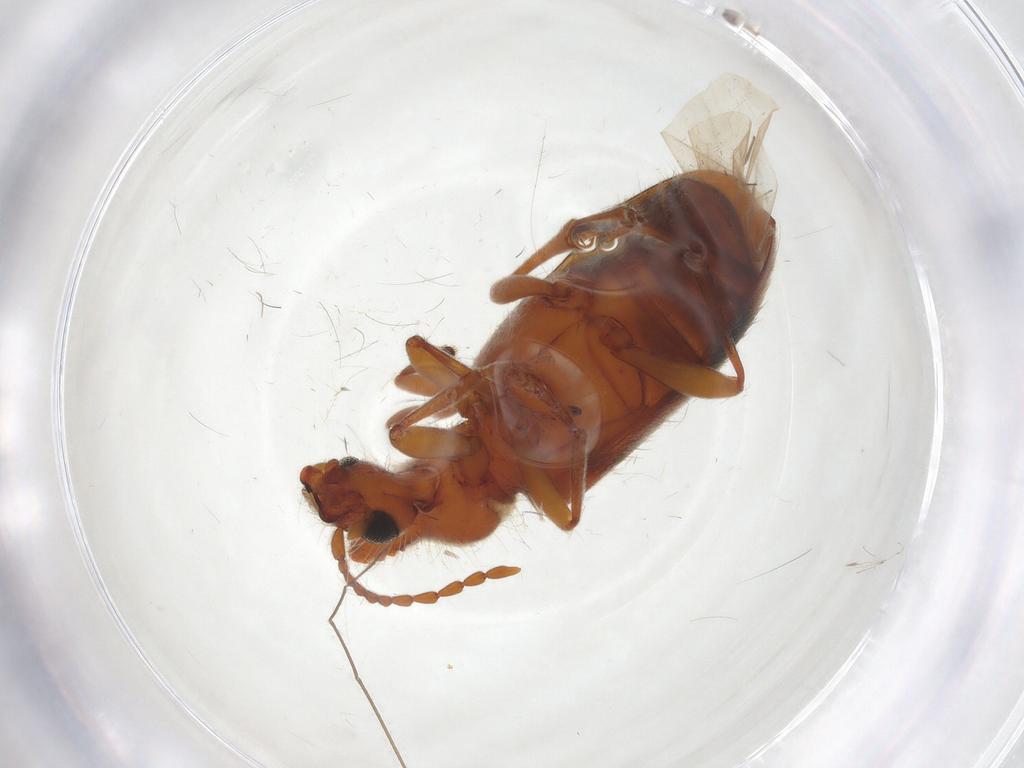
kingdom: Animalia
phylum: Arthropoda
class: Insecta
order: Coleoptera
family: Anthicidae
